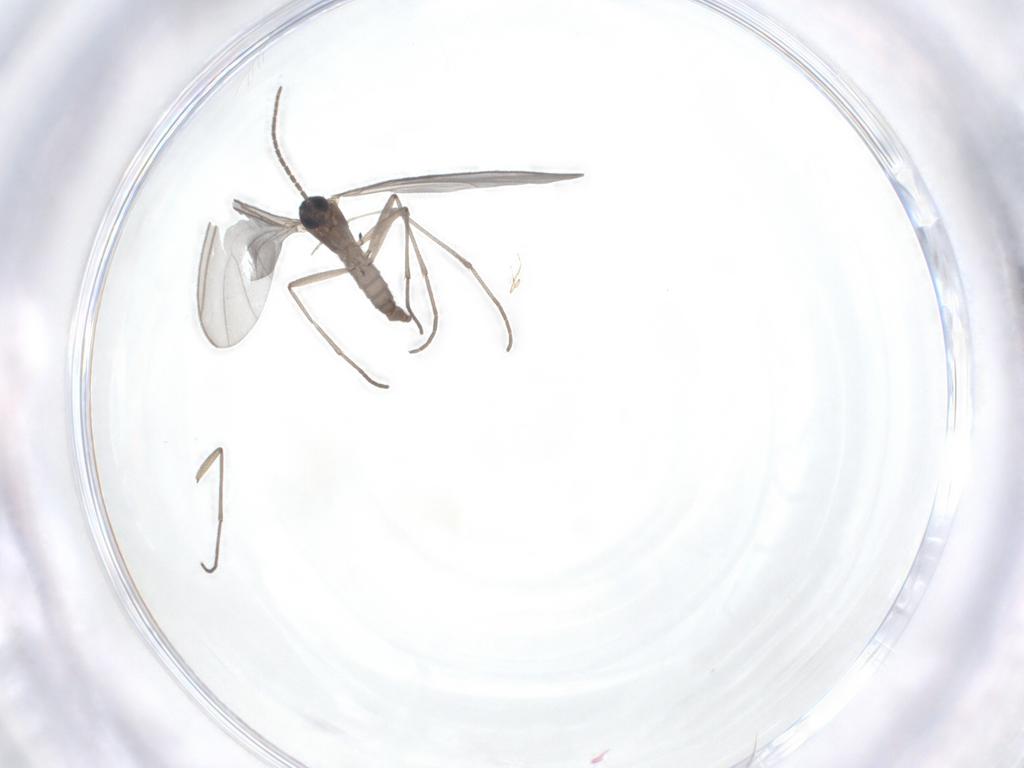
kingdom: Animalia
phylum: Arthropoda
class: Insecta
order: Diptera
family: Sciaridae
